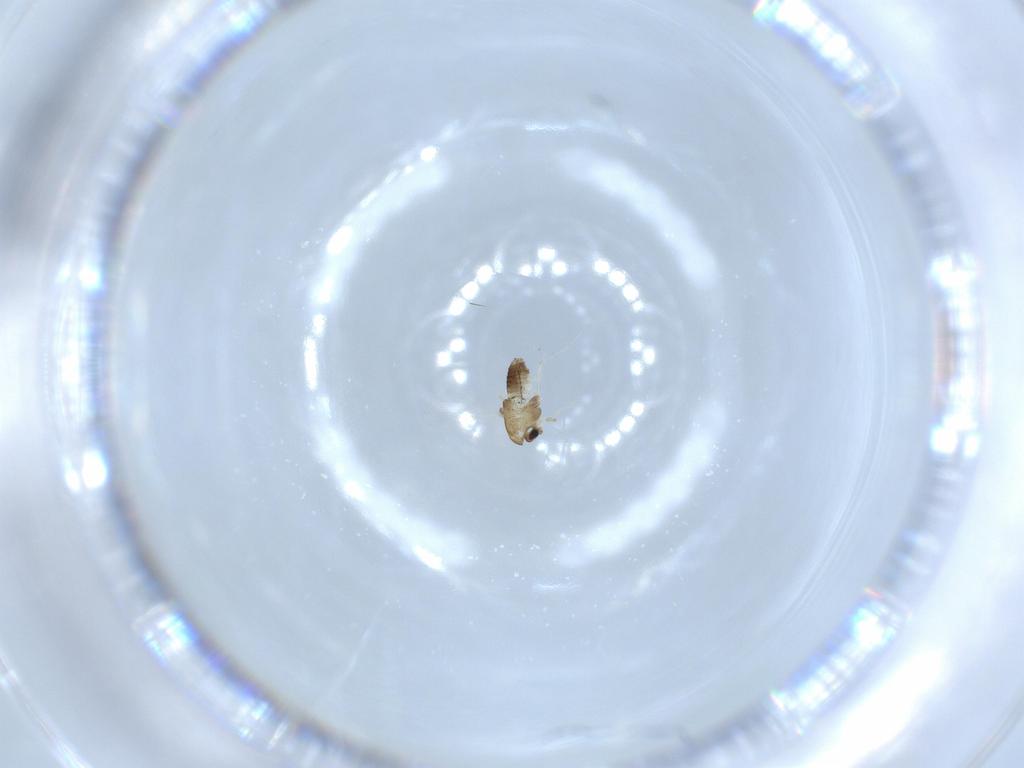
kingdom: Animalia
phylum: Arthropoda
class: Insecta
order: Diptera
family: Chironomidae
